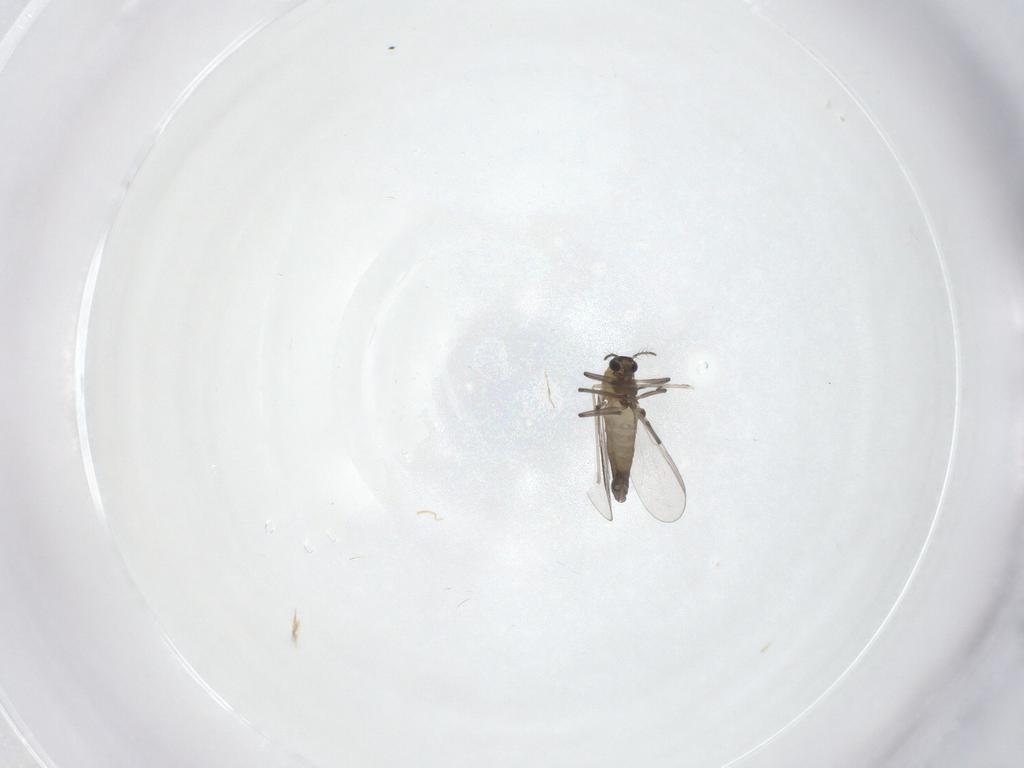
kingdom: Animalia
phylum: Arthropoda
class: Insecta
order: Diptera
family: Chironomidae
